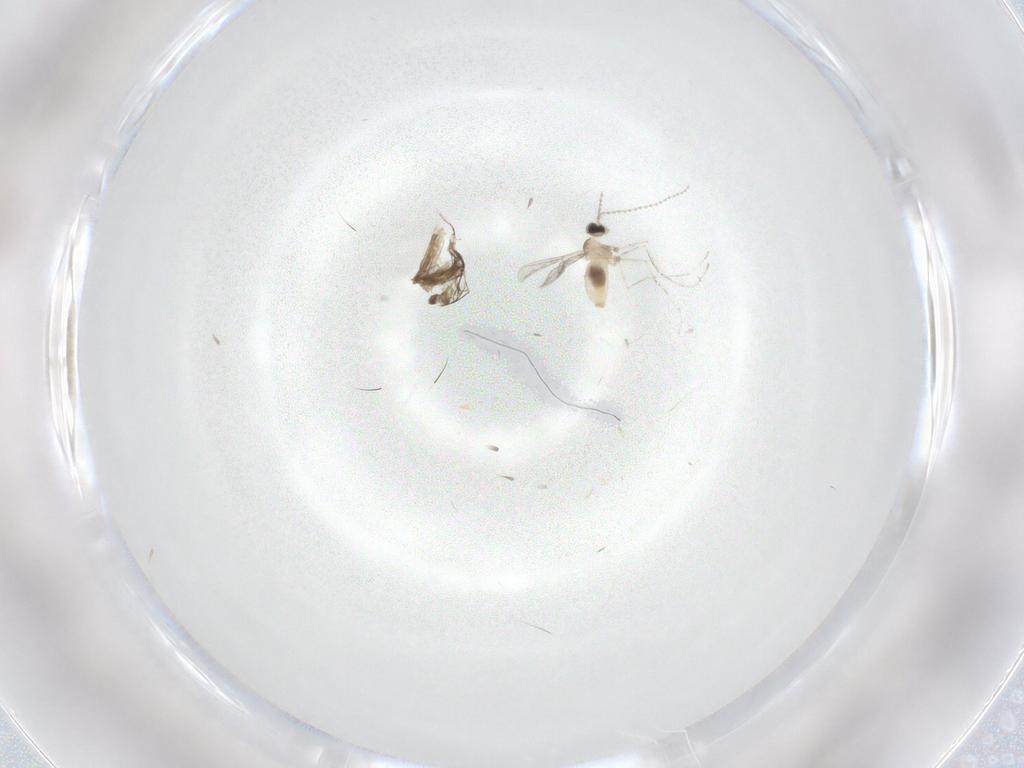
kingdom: Animalia
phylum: Arthropoda
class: Insecta
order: Diptera
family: Cecidomyiidae
